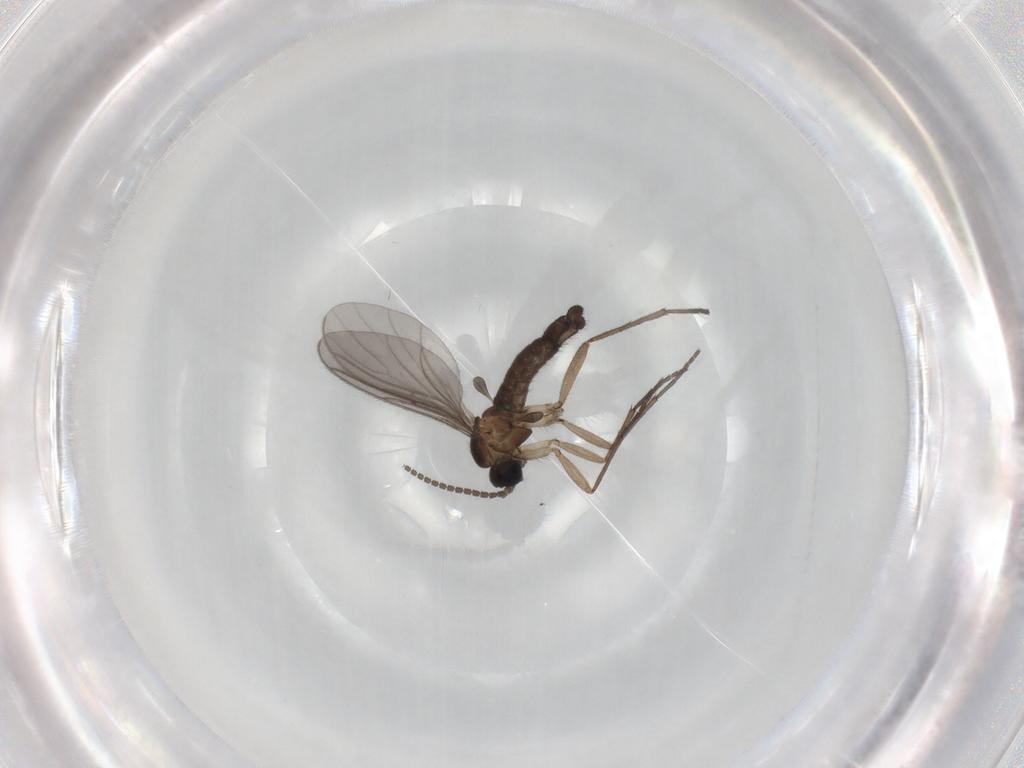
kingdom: Animalia
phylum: Arthropoda
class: Insecta
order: Diptera
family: Sciaridae
